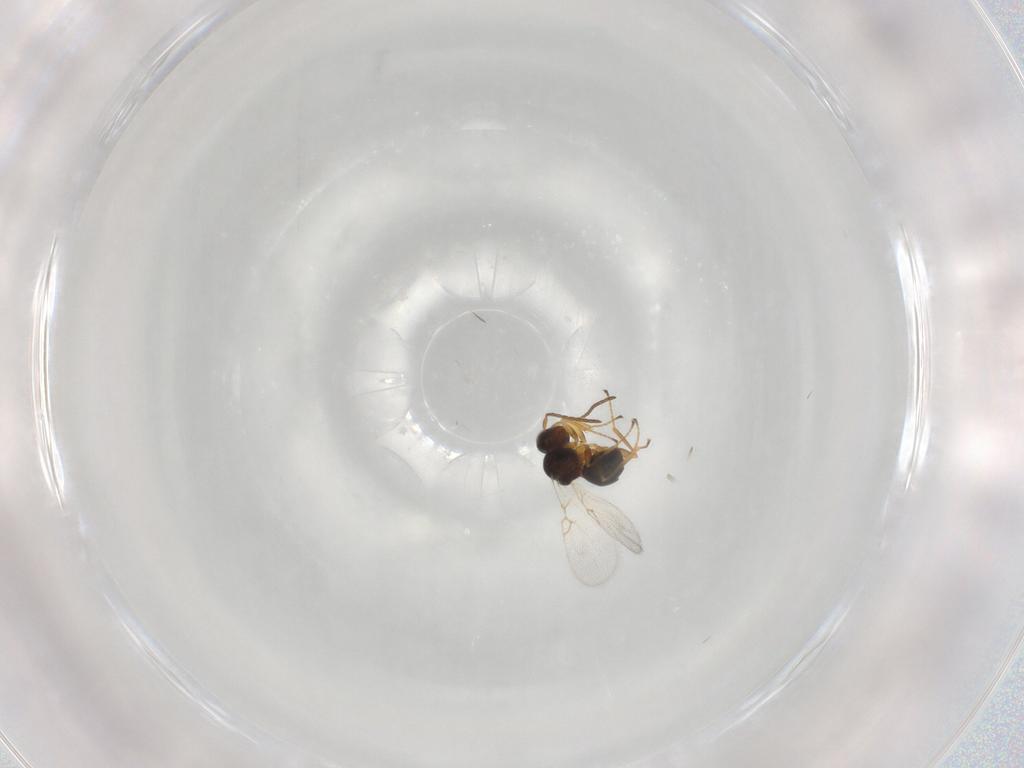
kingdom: Animalia
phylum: Arthropoda
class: Insecta
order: Hymenoptera
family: Figitidae
